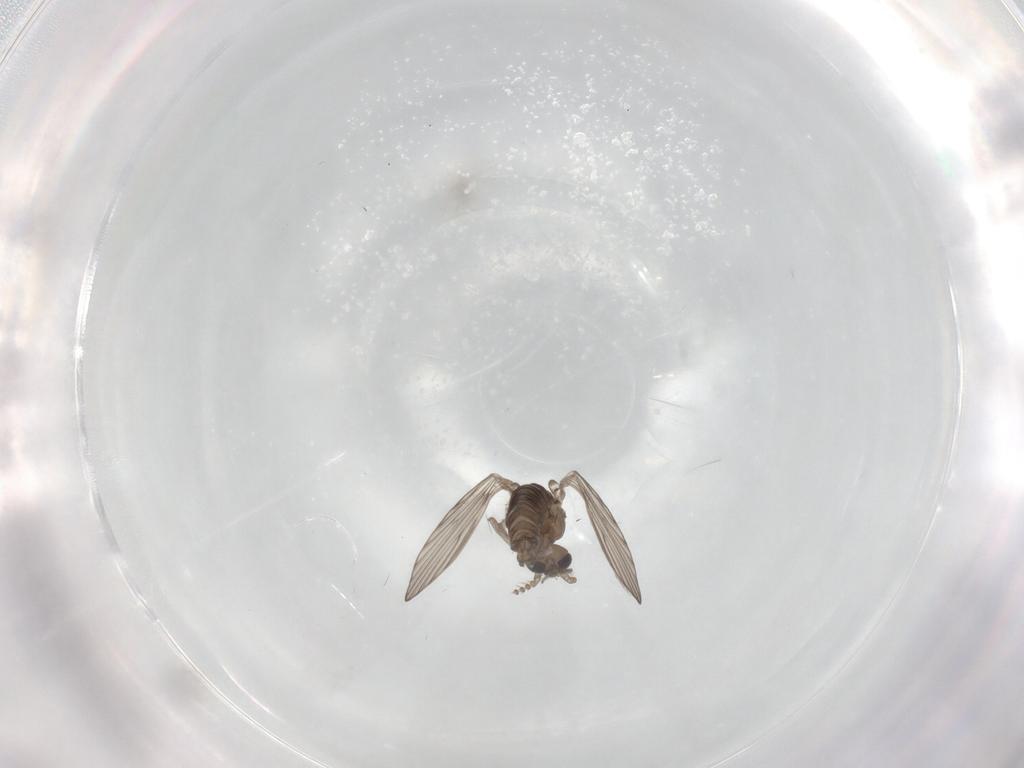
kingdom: Animalia
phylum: Arthropoda
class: Insecta
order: Diptera
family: Psychodidae
